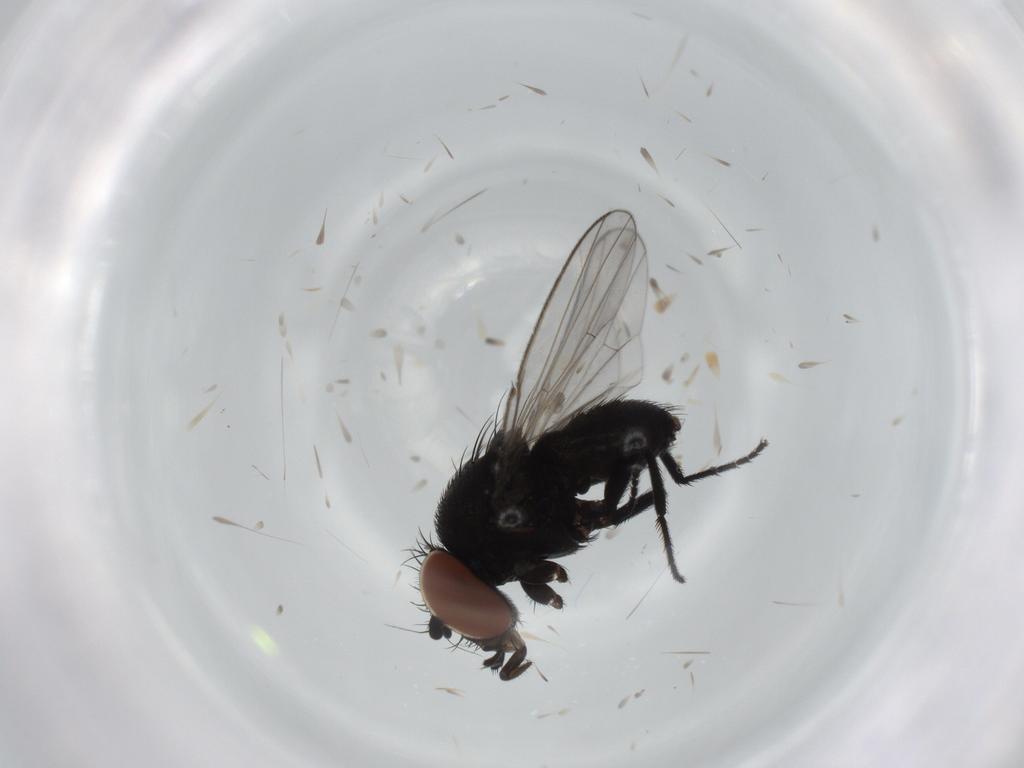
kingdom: Animalia
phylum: Arthropoda
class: Insecta
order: Diptera
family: Milichiidae
